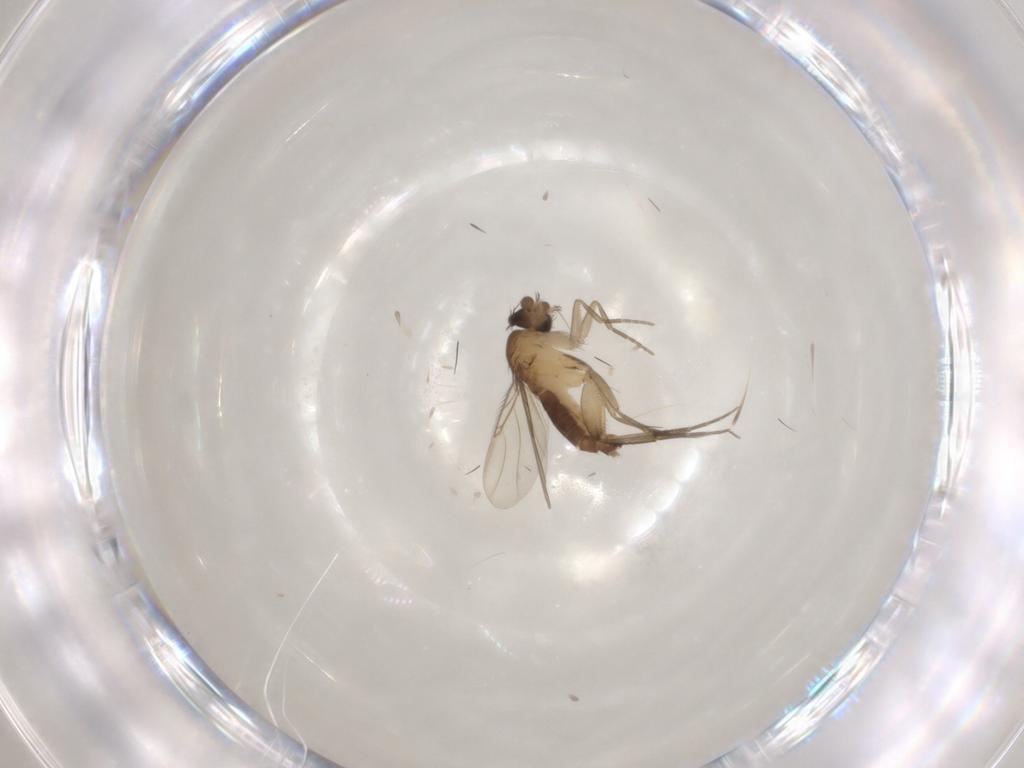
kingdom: Animalia
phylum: Arthropoda
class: Insecta
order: Diptera
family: Phoridae
